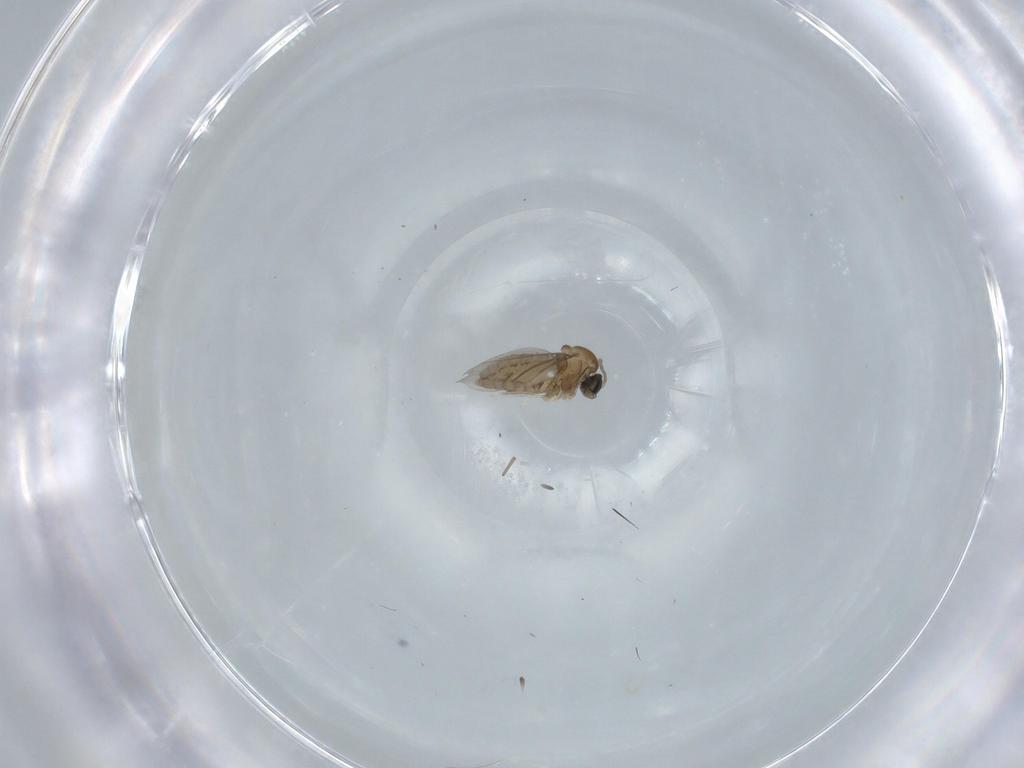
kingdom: Animalia
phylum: Arthropoda
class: Insecta
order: Diptera
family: Cecidomyiidae
